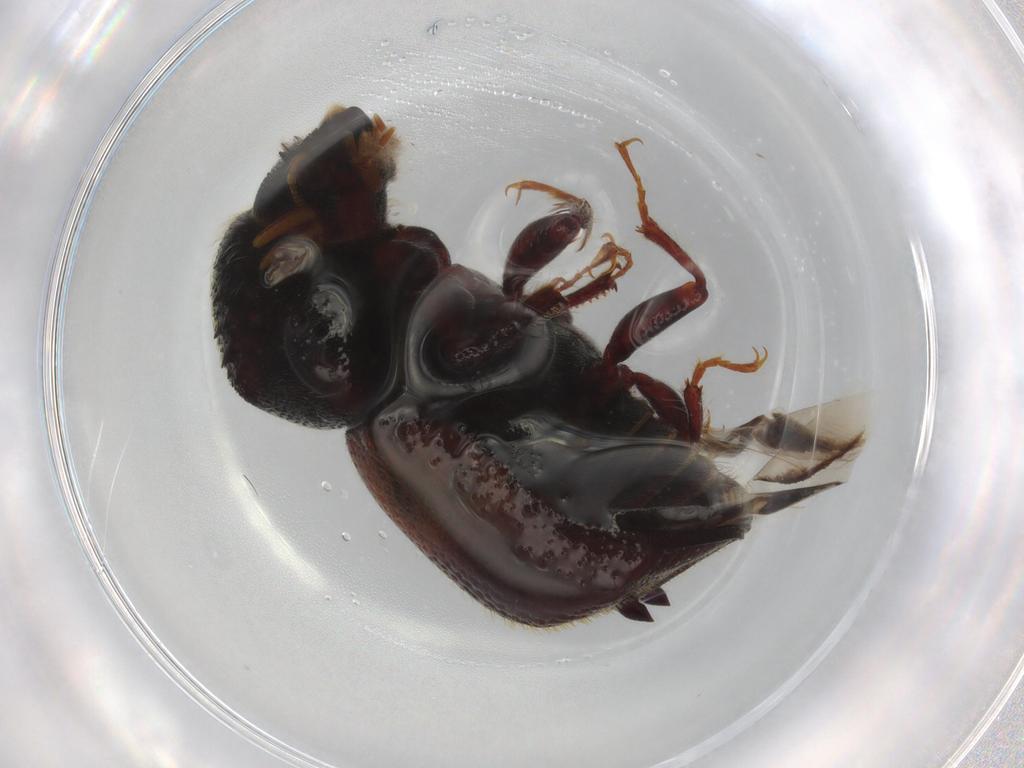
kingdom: Animalia
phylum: Arthropoda
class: Insecta
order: Coleoptera
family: Bostrichidae
